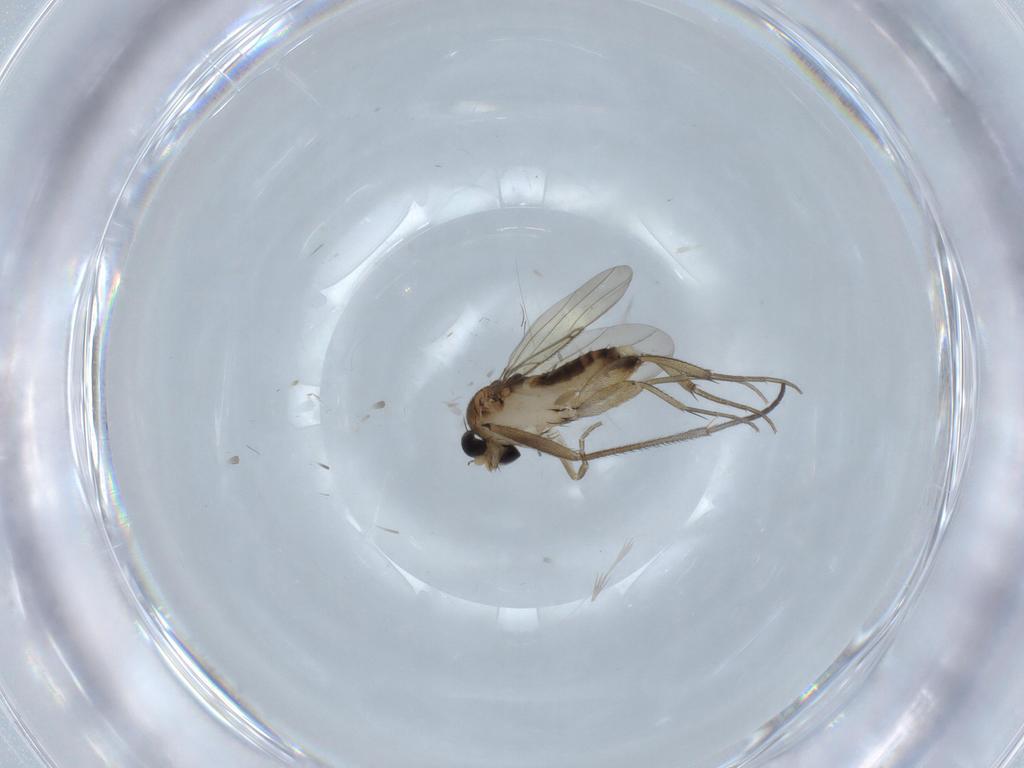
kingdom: Animalia
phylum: Arthropoda
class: Insecta
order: Diptera
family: Phoridae
